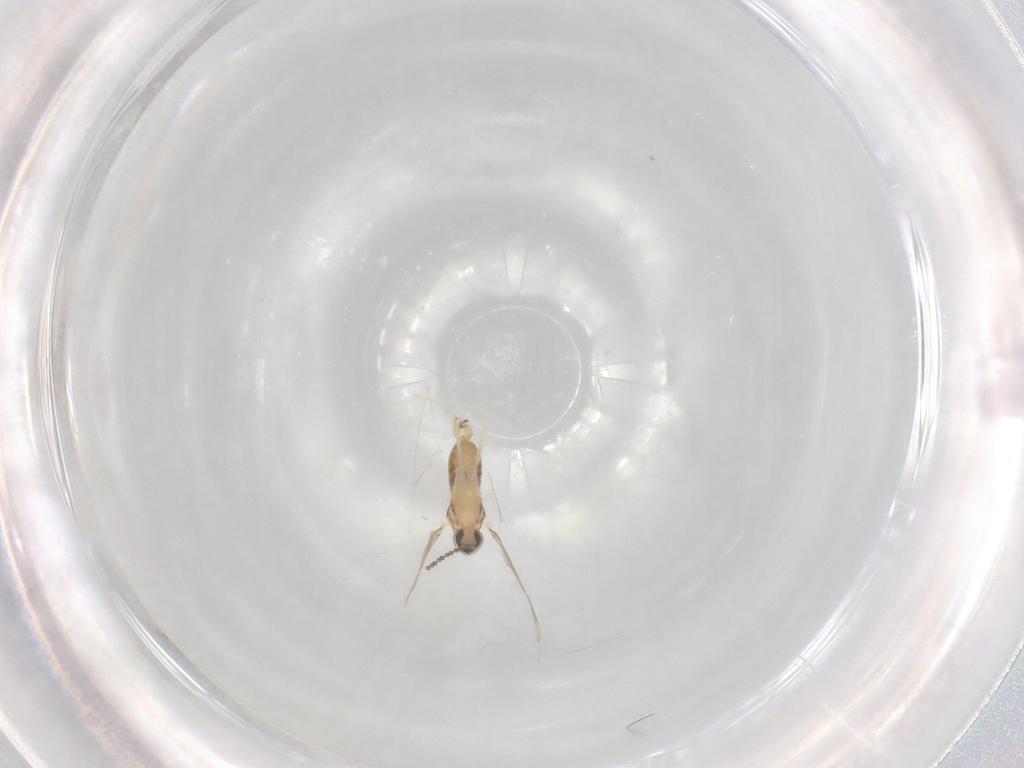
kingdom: Animalia
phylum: Arthropoda
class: Insecta
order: Diptera
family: Cecidomyiidae
